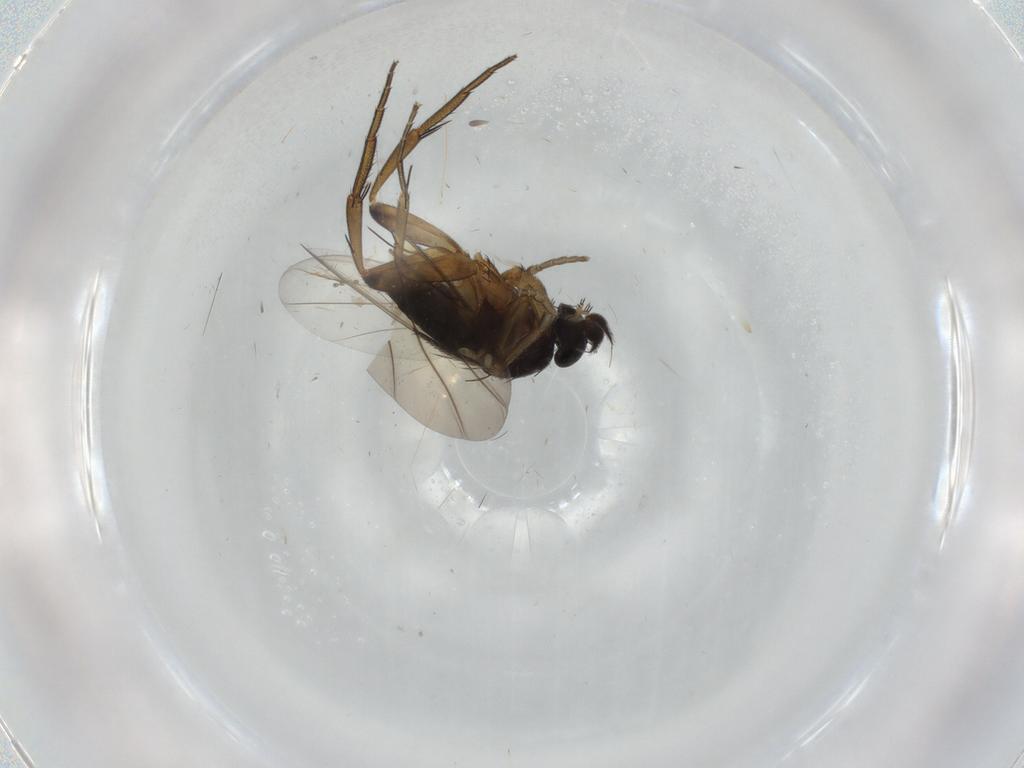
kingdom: Animalia
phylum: Arthropoda
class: Insecta
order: Diptera
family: Phoridae
